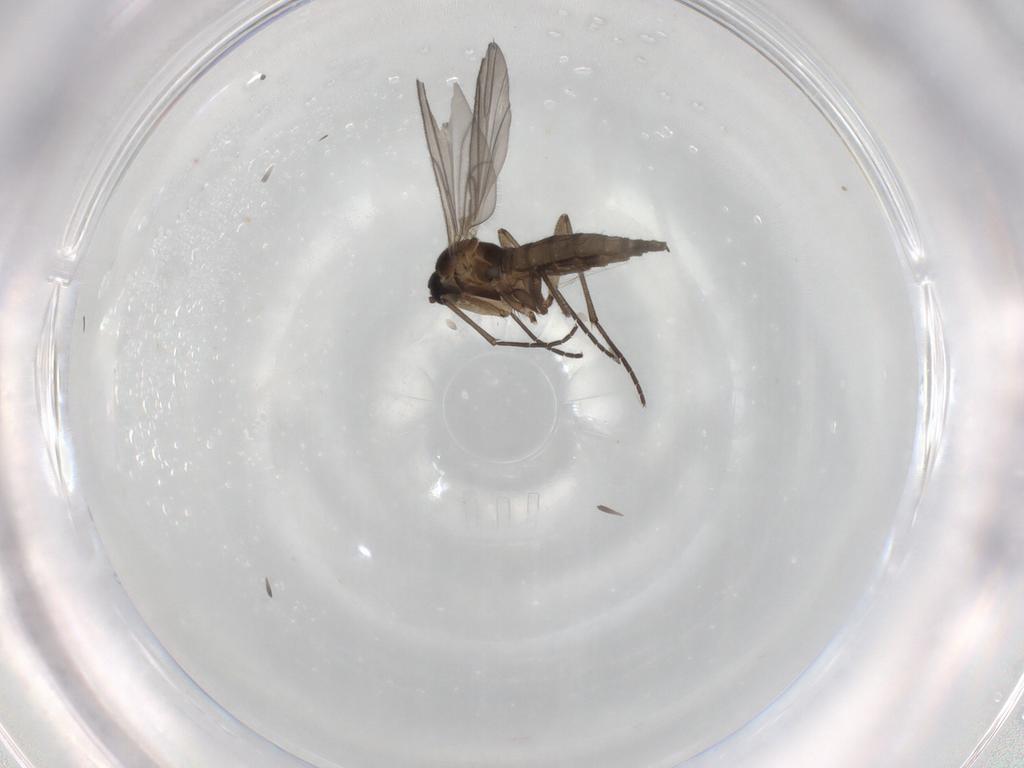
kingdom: Animalia
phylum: Arthropoda
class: Insecta
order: Diptera
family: Sciaridae
